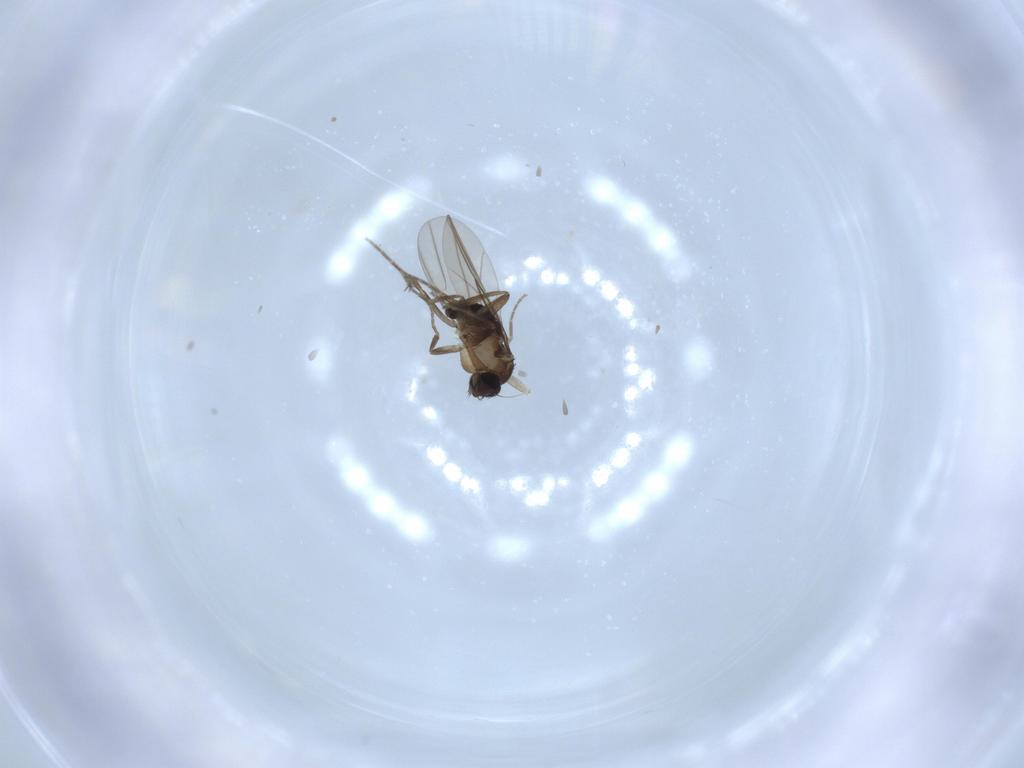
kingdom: Animalia
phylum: Arthropoda
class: Insecta
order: Diptera
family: Phoridae
